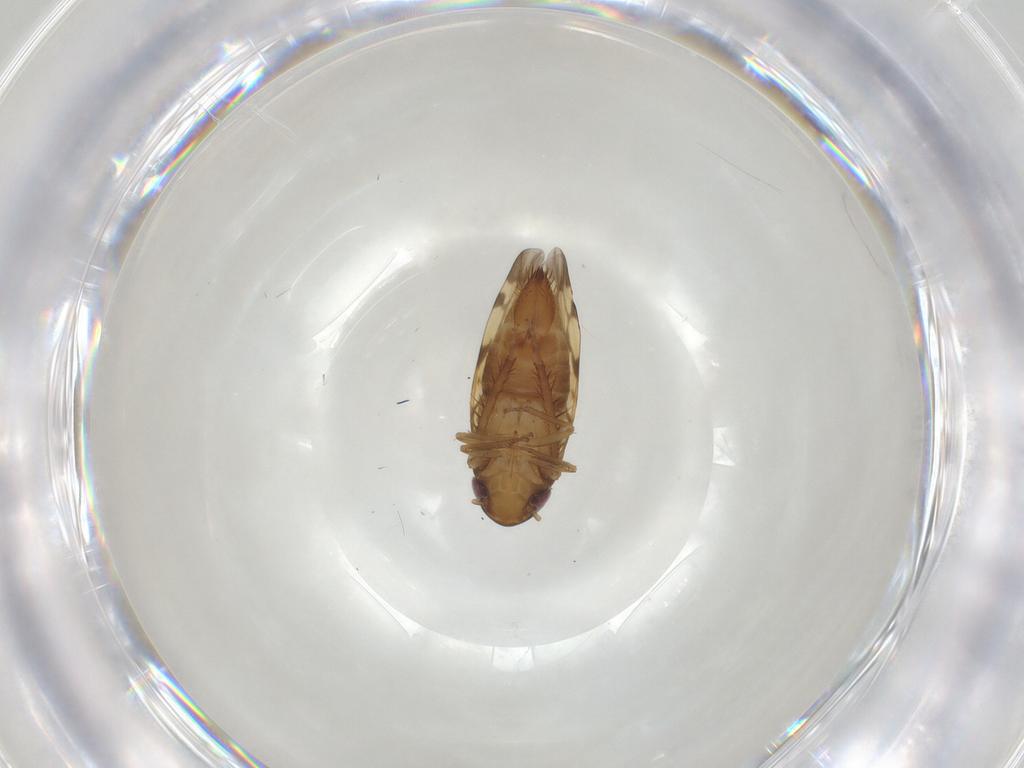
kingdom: Animalia
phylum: Arthropoda
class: Insecta
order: Hemiptera
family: Cicadellidae
